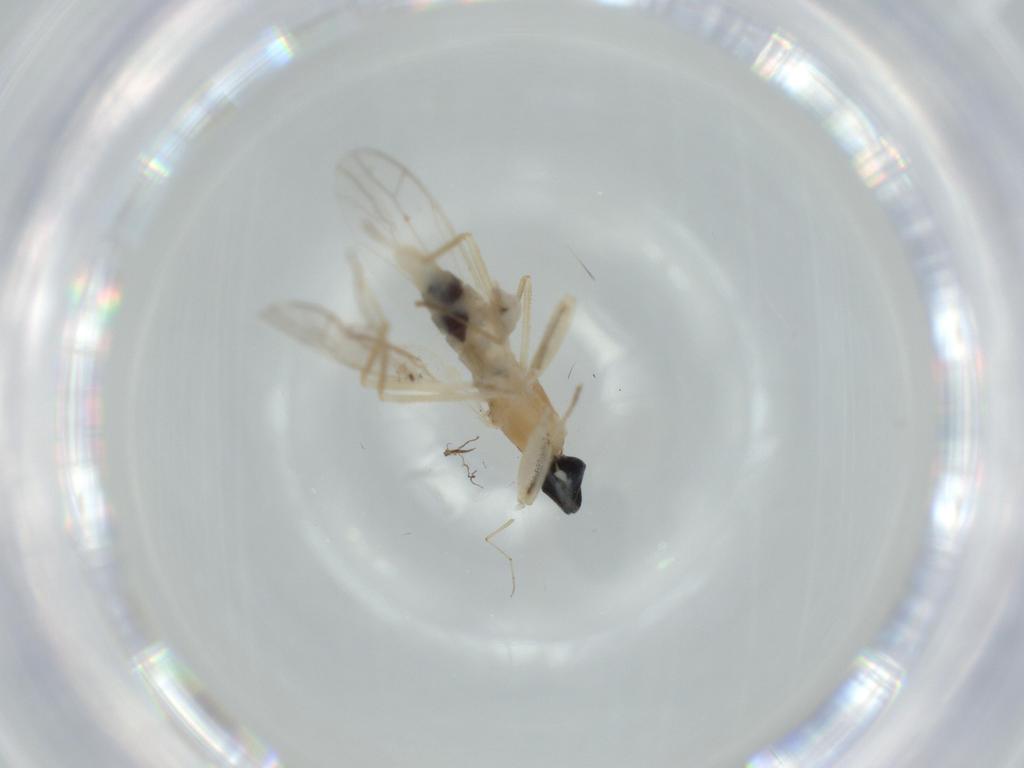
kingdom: Animalia
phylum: Arthropoda
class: Insecta
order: Diptera
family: Empididae
